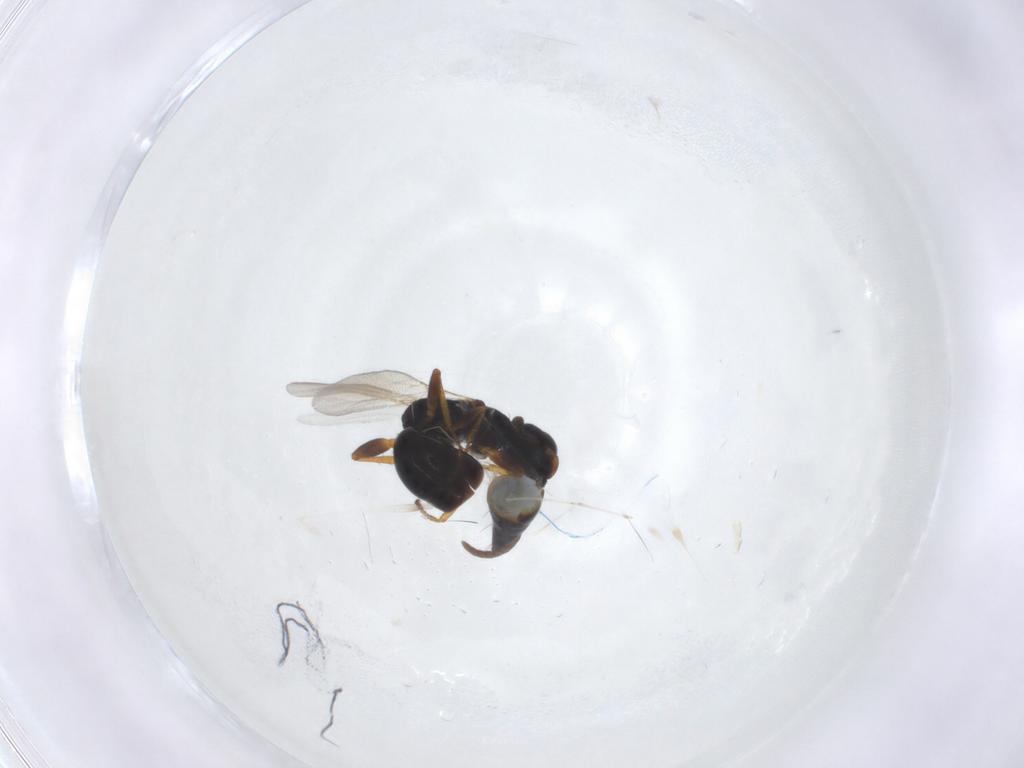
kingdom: Animalia
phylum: Arthropoda
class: Insecta
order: Hymenoptera
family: Bethylidae
